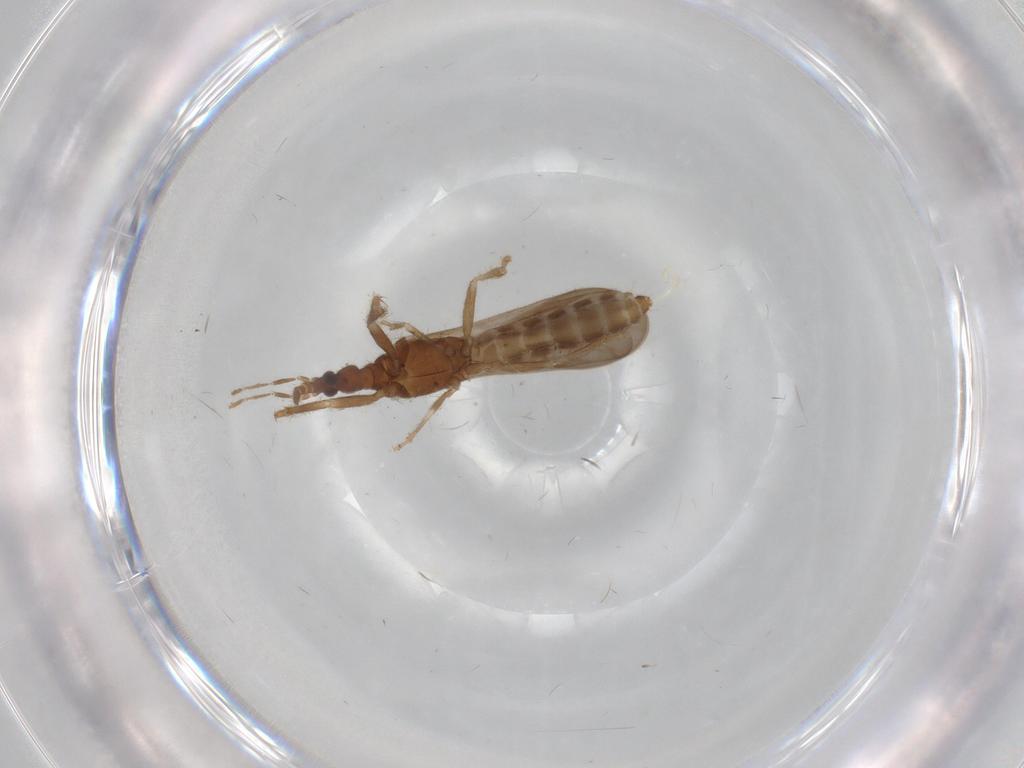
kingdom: Animalia
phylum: Arthropoda
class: Insecta
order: Hemiptera
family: Enicocephalidae
